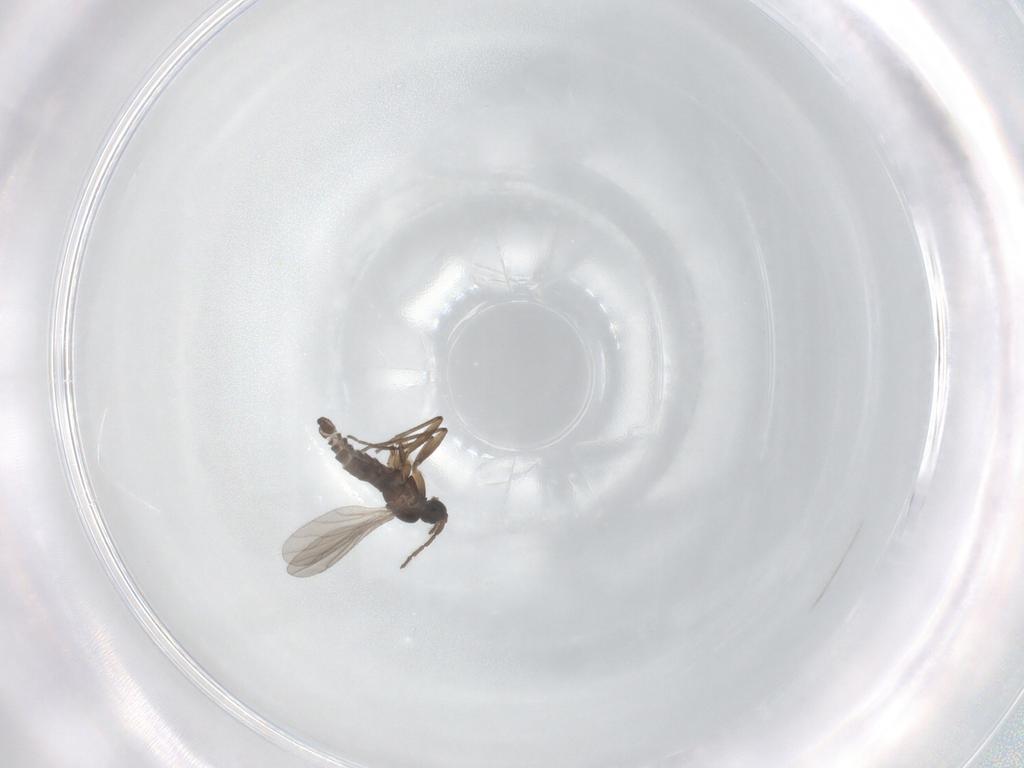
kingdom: Animalia
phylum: Arthropoda
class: Insecta
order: Diptera
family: Sciaridae
